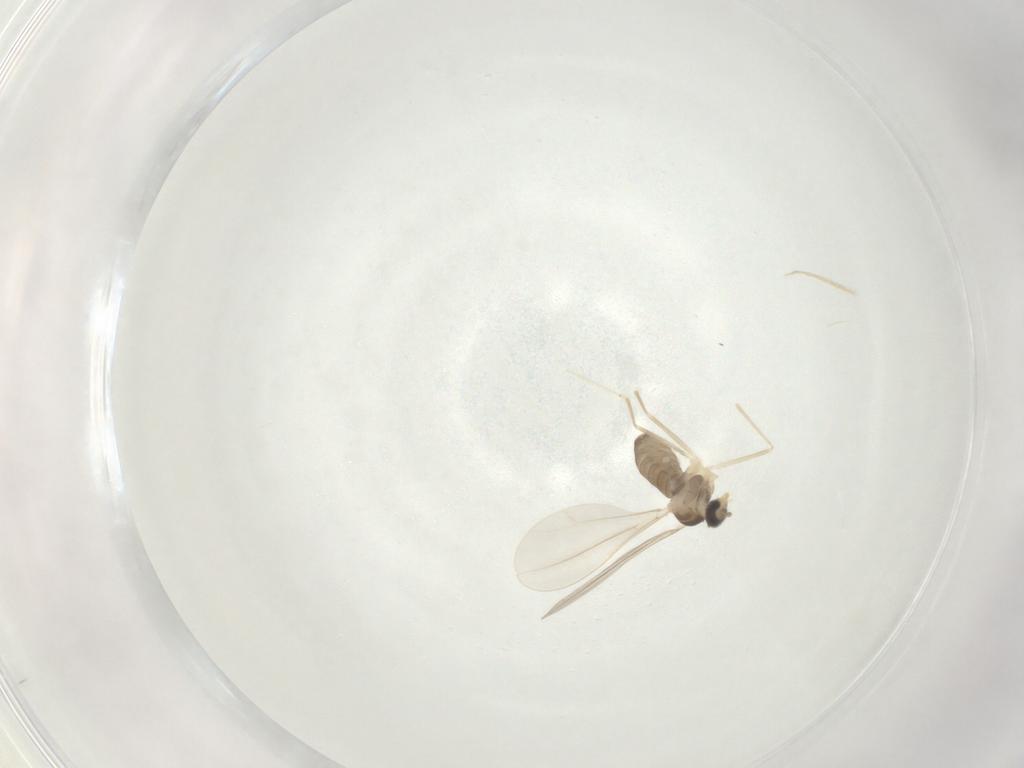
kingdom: Animalia
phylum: Arthropoda
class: Insecta
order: Diptera
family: Cecidomyiidae
